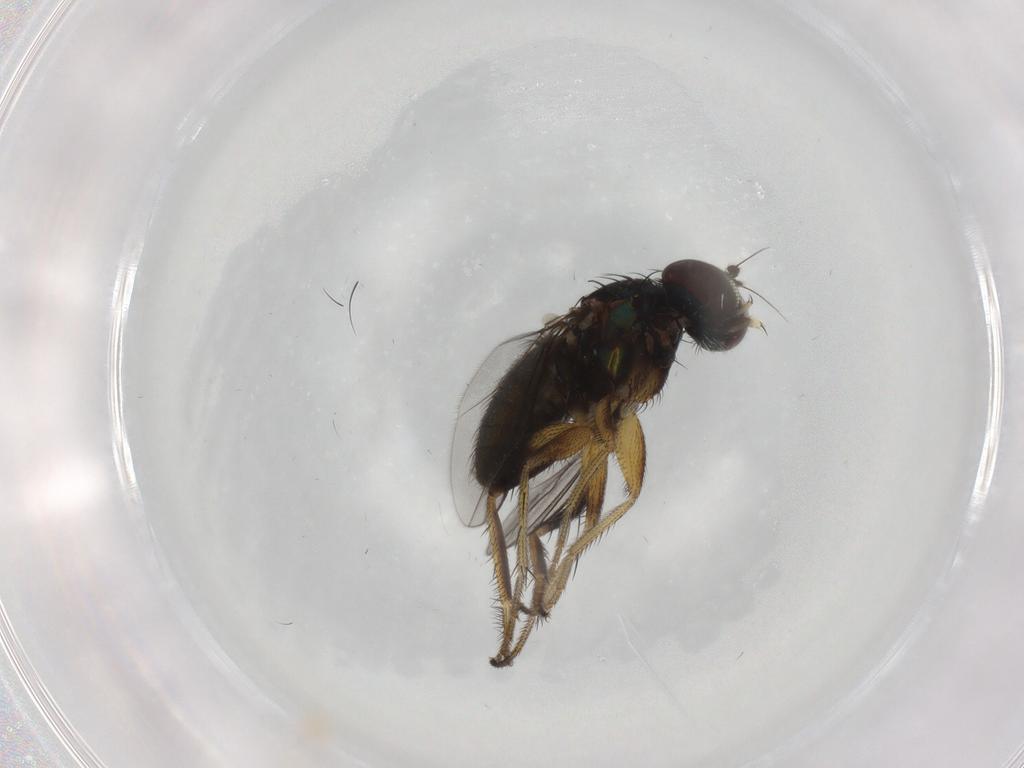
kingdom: Animalia
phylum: Arthropoda
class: Insecta
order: Diptera
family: Dolichopodidae
